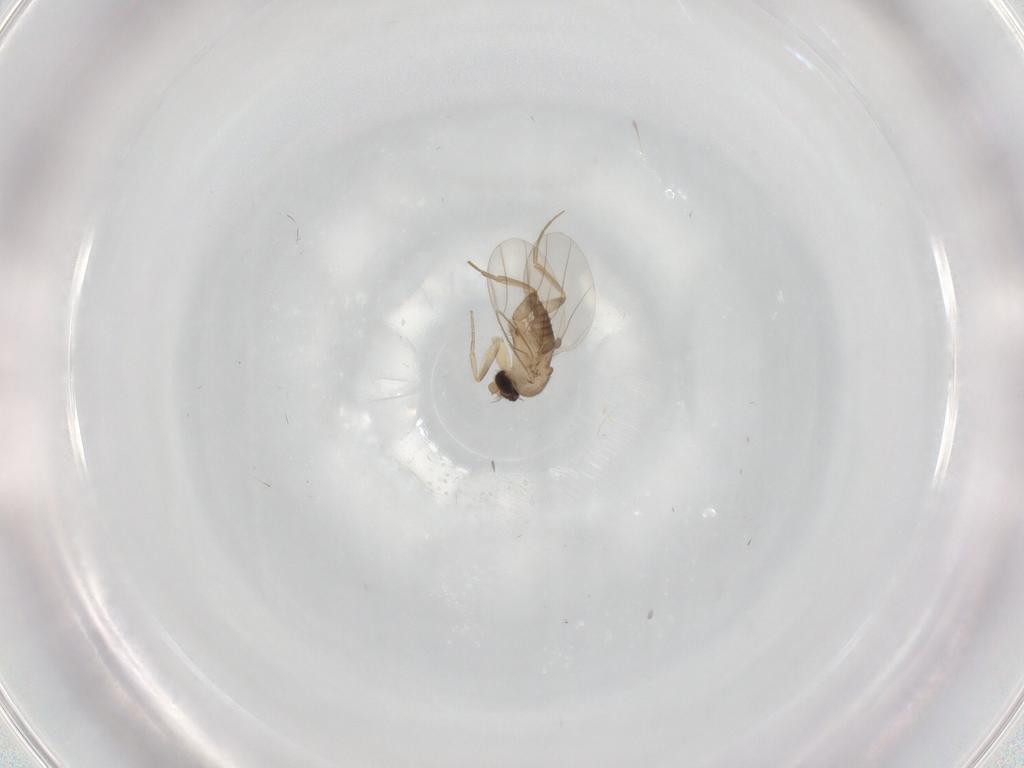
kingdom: Animalia
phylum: Arthropoda
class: Insecta
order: Diptera
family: Phoridae
